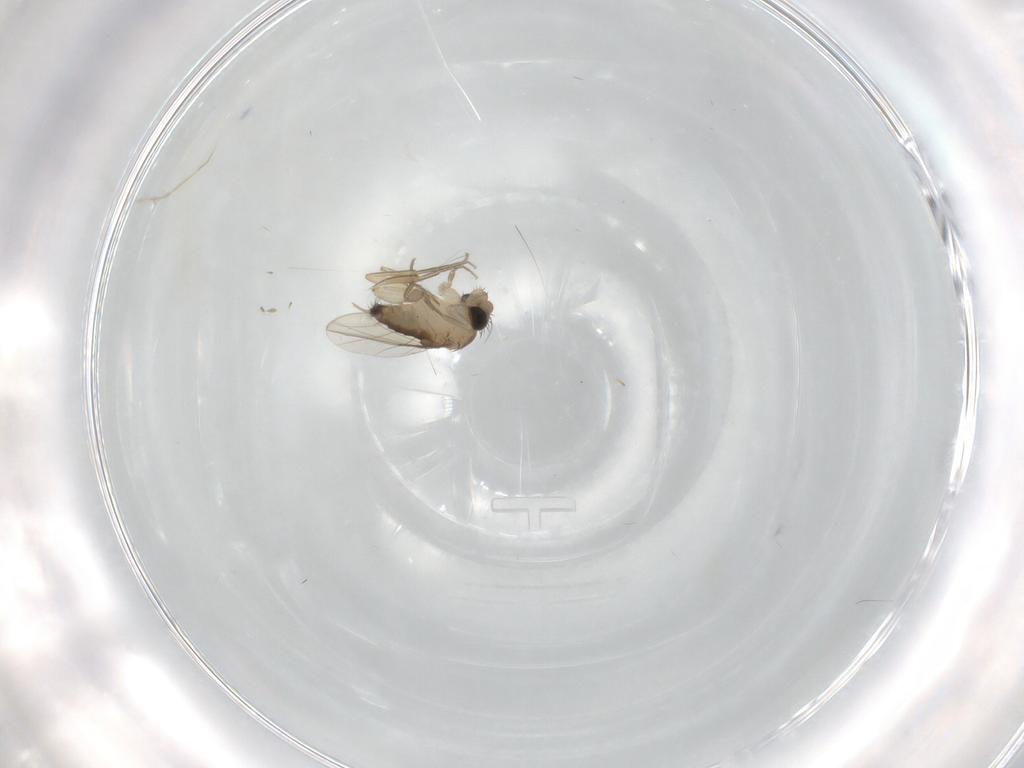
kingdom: Animalia
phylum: Arthropoda
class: Insecta
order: Diptera
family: Phoridae
